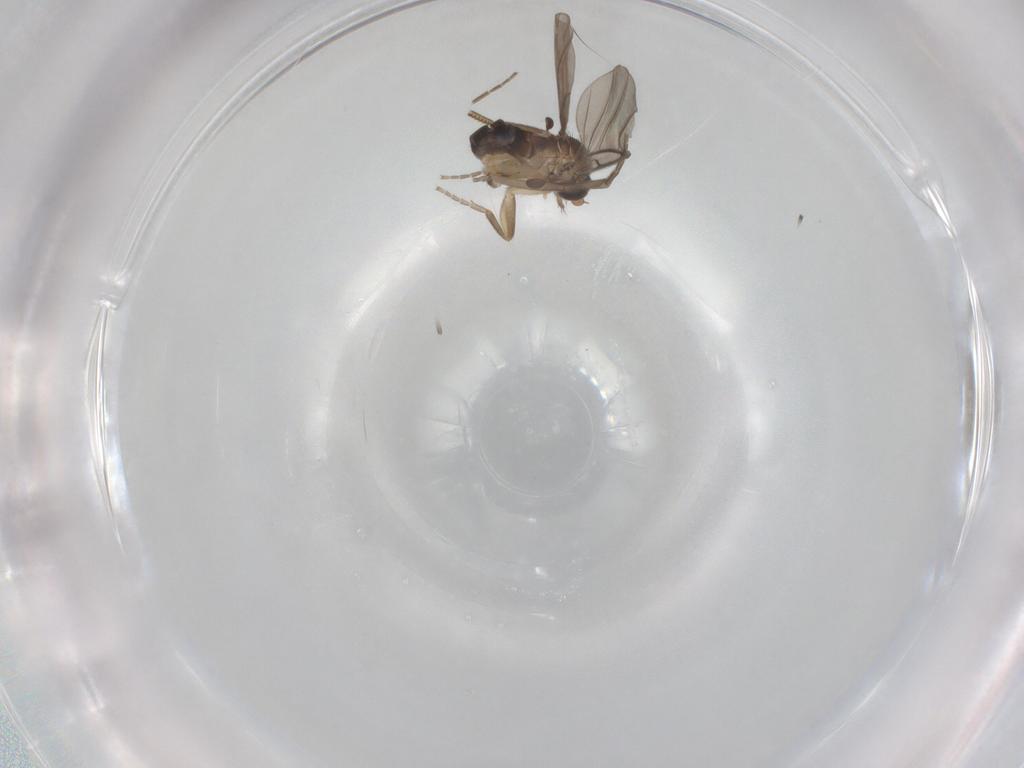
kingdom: Animalia
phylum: Arthropoda
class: Insecta
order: Diptera
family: Phoridae
